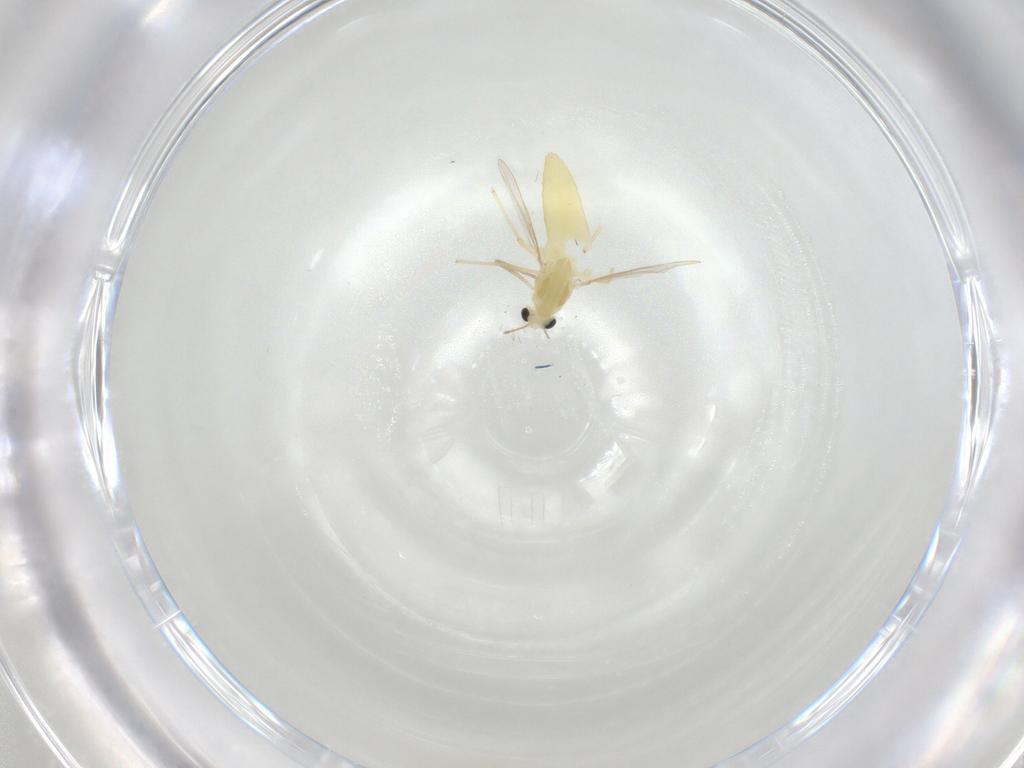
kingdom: Animalia
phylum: Arthropoda
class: Insecta
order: Diptera
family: Chironomidae
